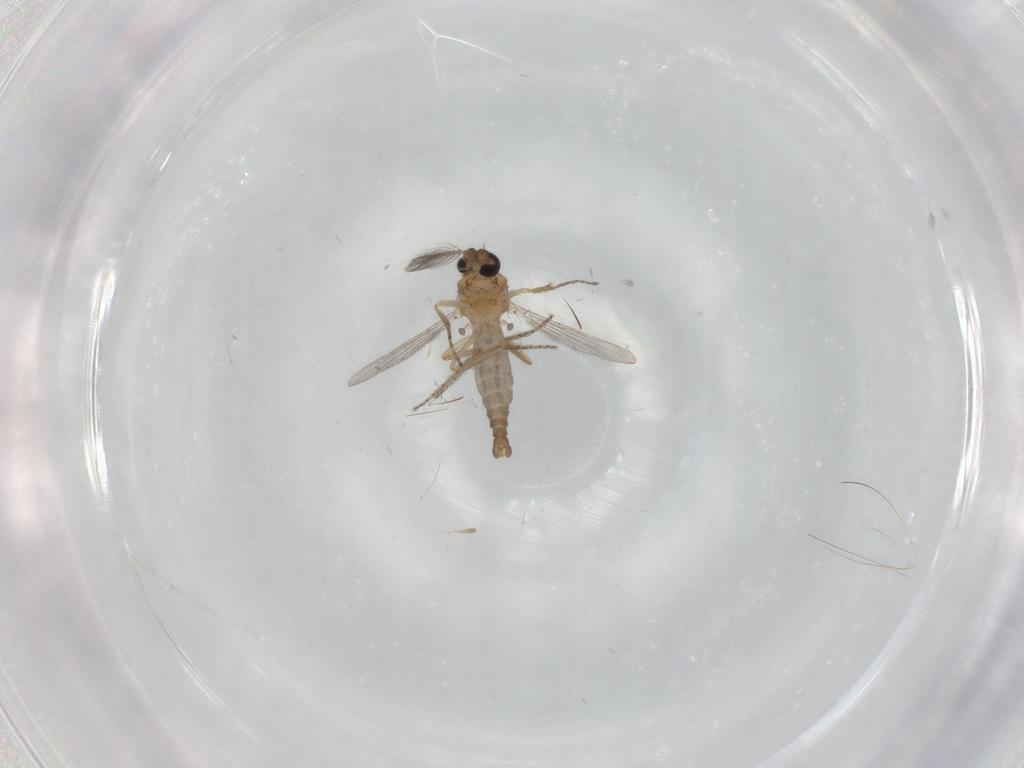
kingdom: Animalia
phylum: Arthropoda
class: Insecta
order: Diptera
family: Ceratopogonidae
